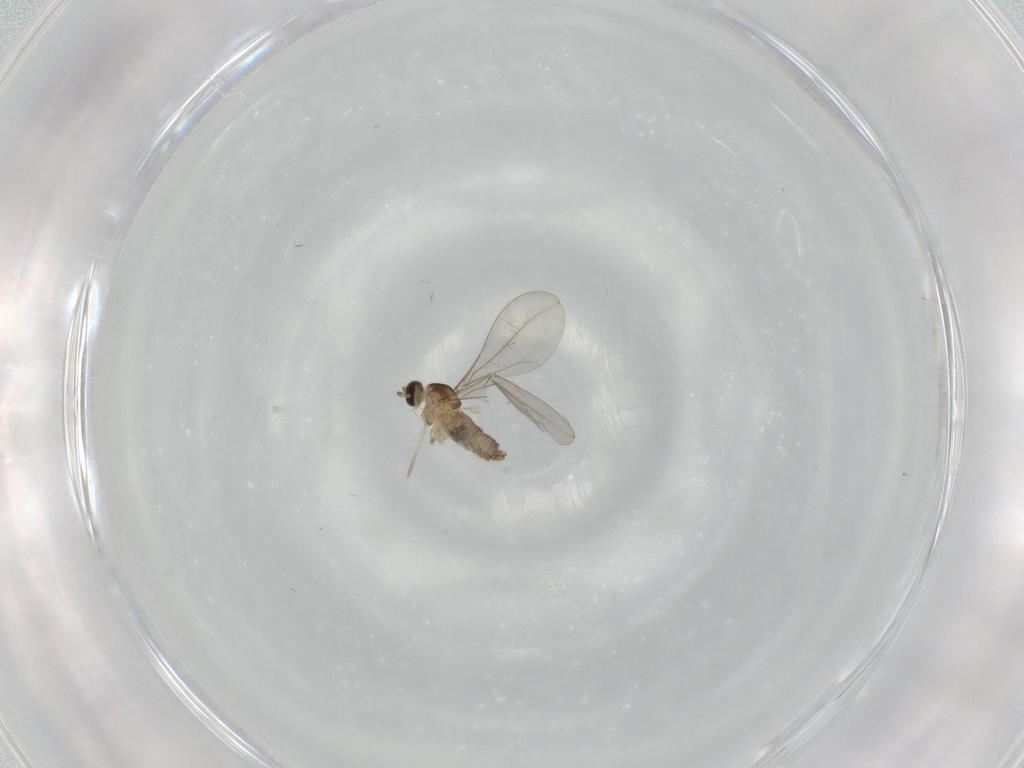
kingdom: Animalia
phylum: Arthropoda
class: Insecta
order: Diptera
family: Cecidomyiidae
